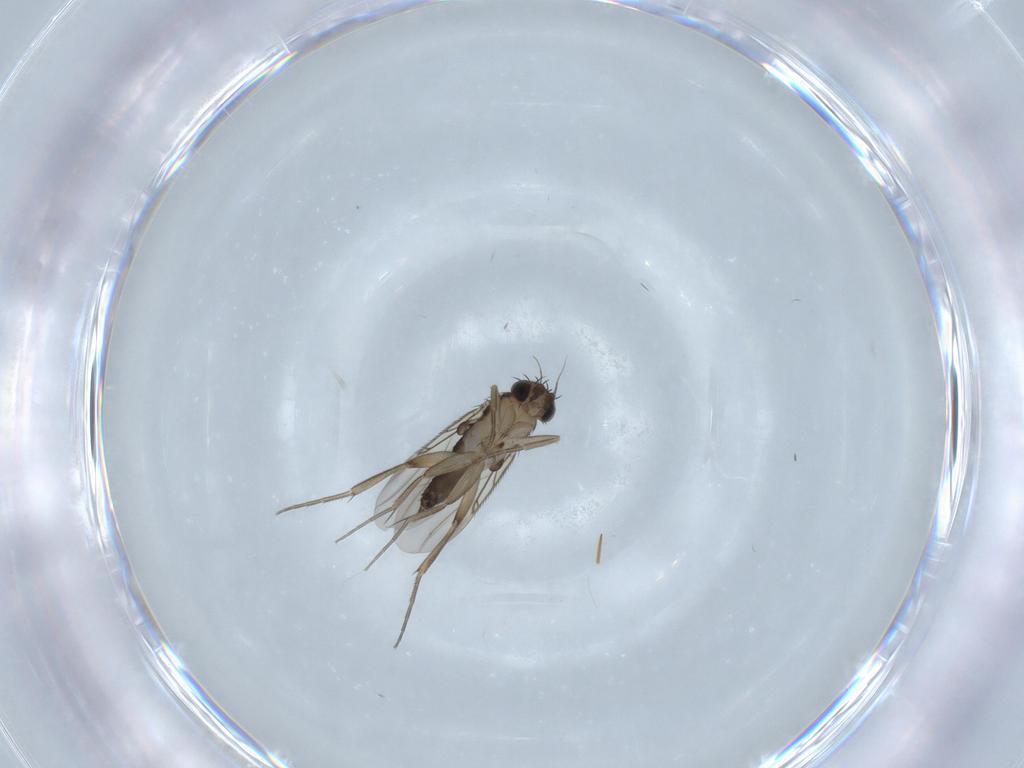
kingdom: Animalia
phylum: Arthropoda
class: Insecta
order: Diptera
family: Phoridae
